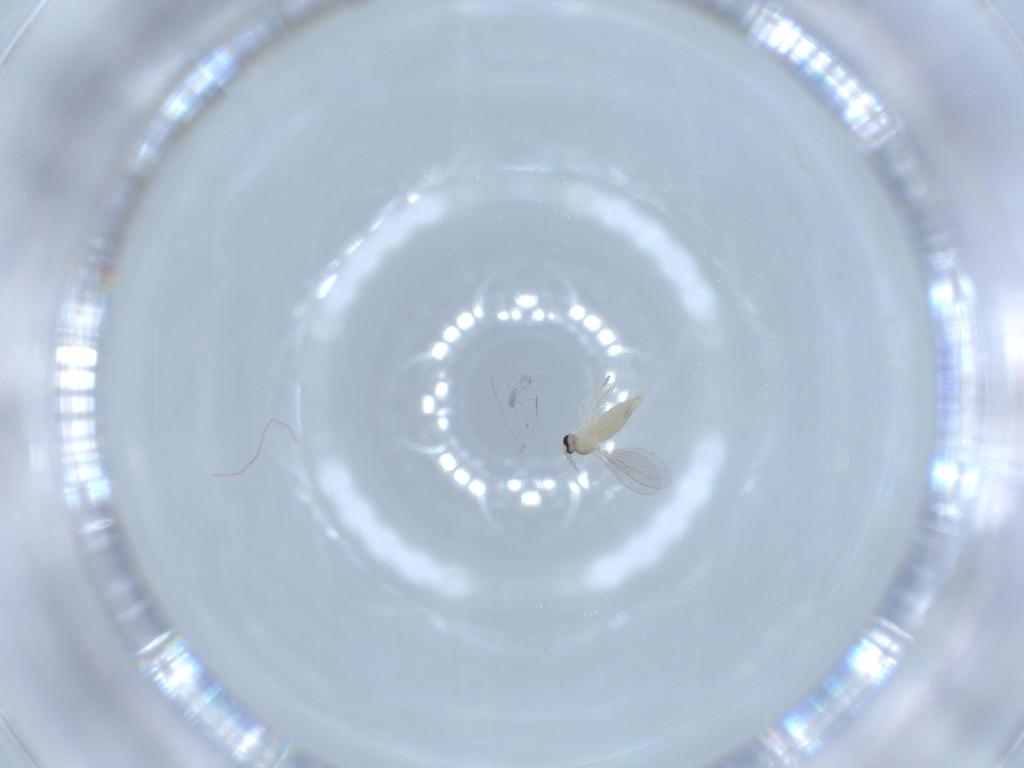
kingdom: Animalia
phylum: Arthropoda
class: Insecta
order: Diptera
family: Cecidomyiidae
